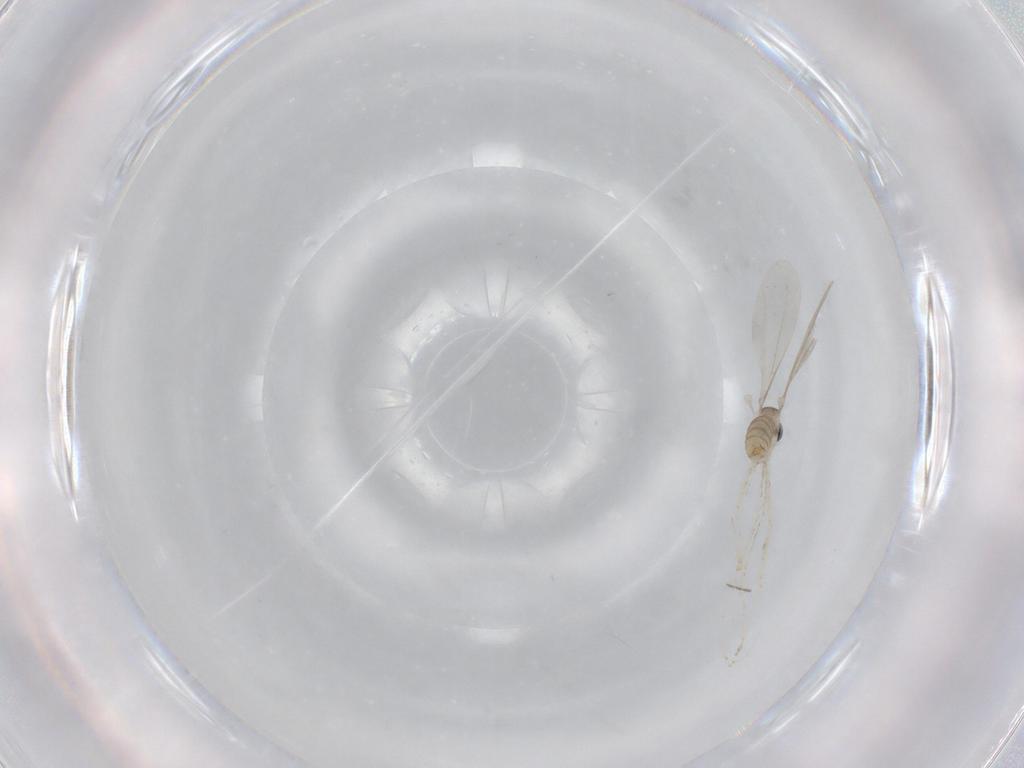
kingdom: Animalia
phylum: Arthropoda
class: Insecta
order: Diptera
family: Cecidomyiidae
